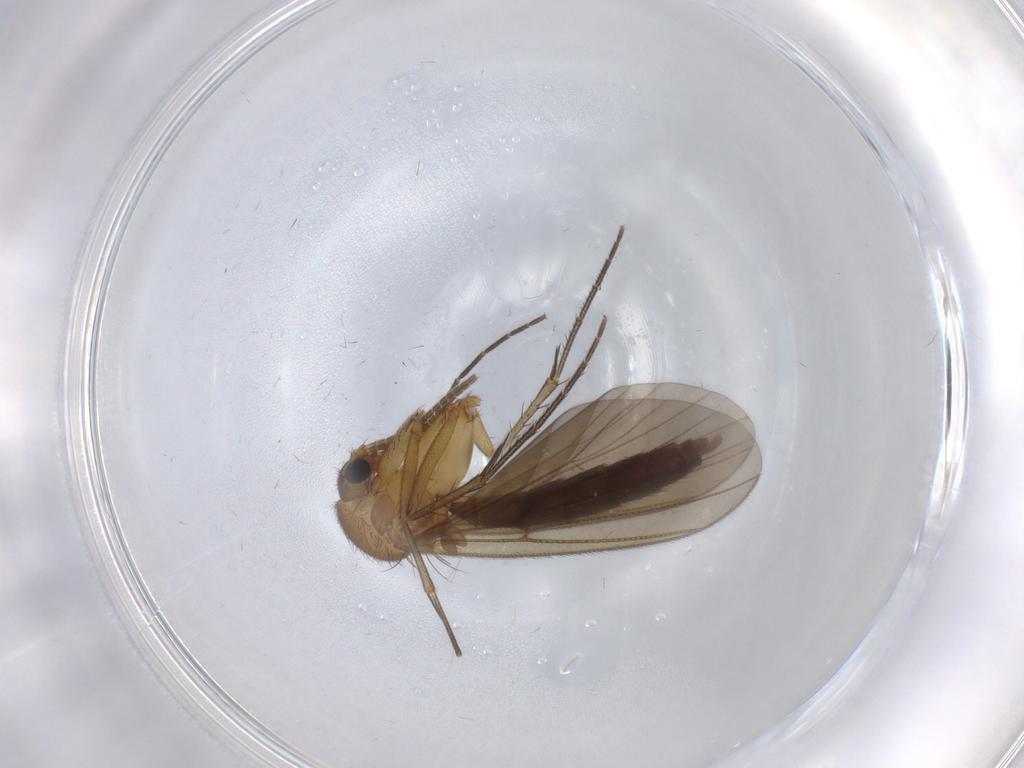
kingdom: Animalia
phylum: Arthropoda
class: Insecta
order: Diptera
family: Mycetophilidae
